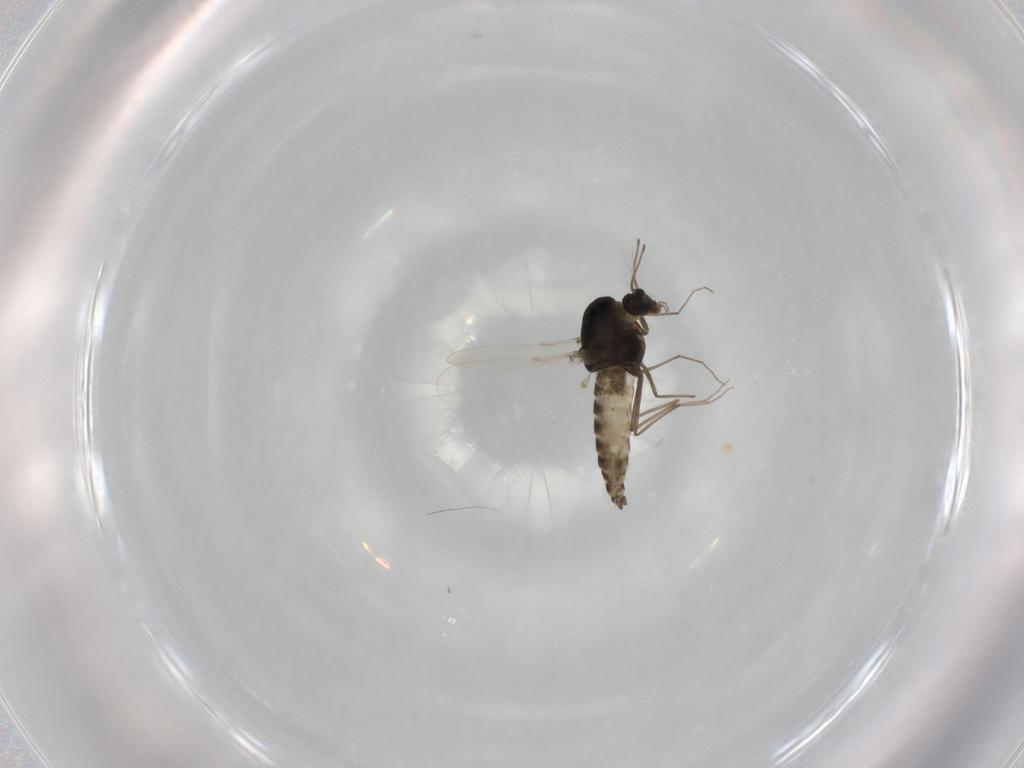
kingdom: Animalia
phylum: Arthropoda
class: Insecta
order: Diptera
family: Chironomidae
